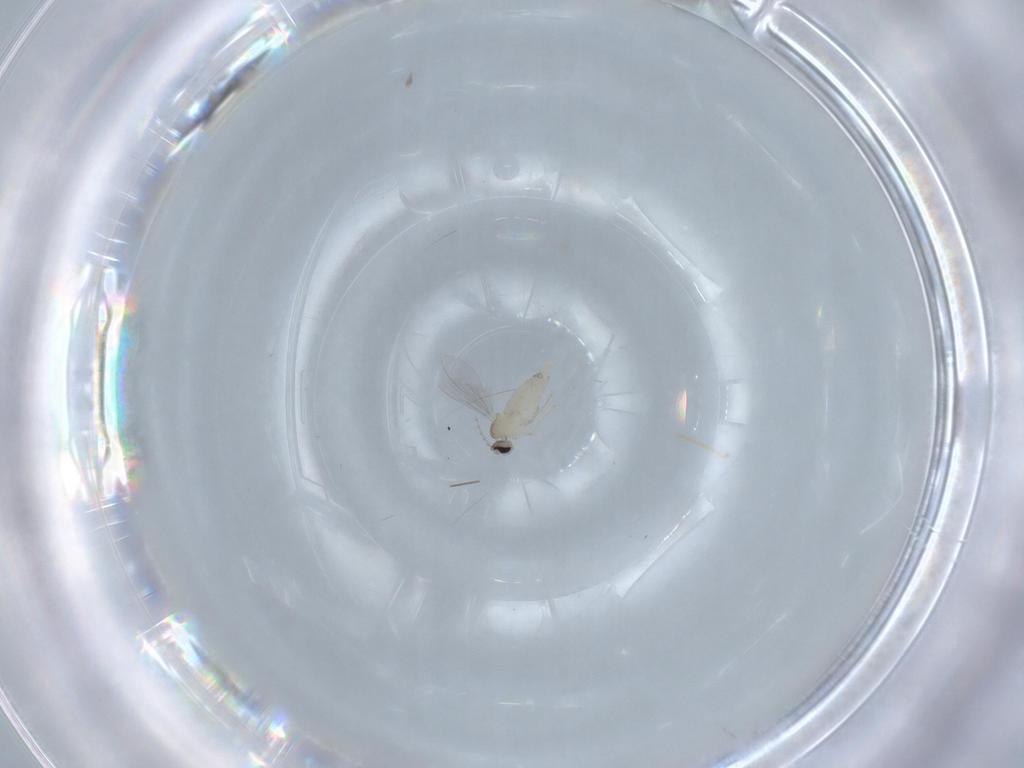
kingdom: Animalia
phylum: Arthropoda
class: Insecta
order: Diptera
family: Cecidomyiidae
